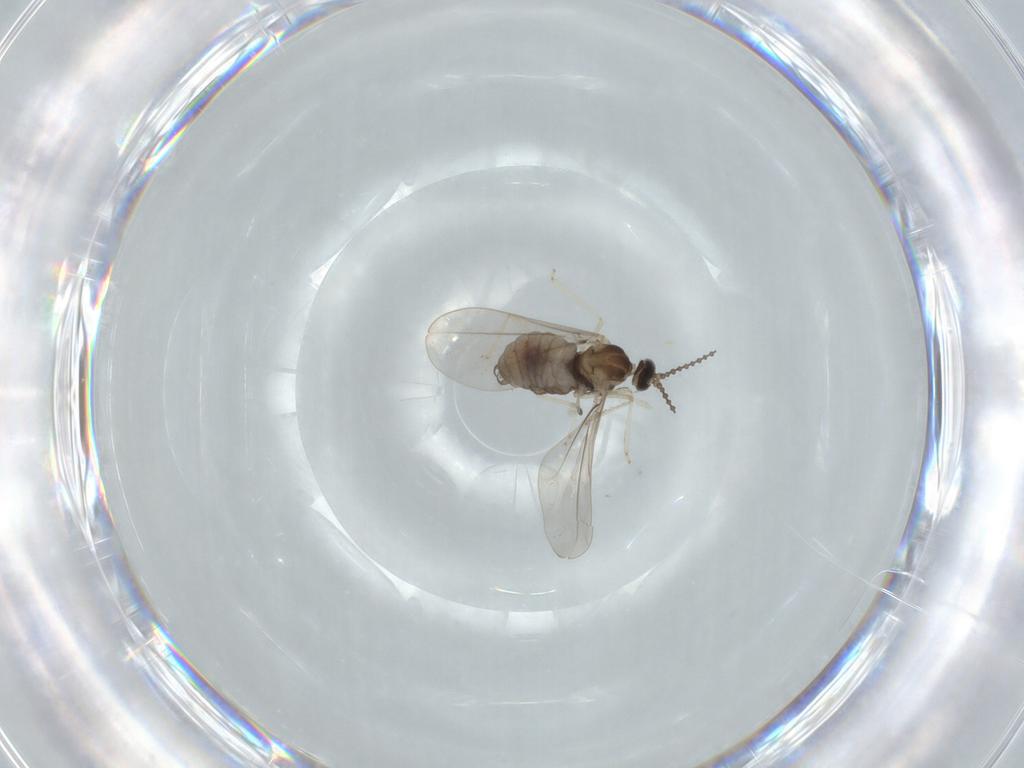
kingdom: Animalia
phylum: Arthropoda
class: Insecta
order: Diptera
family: Cecidomyiidae
